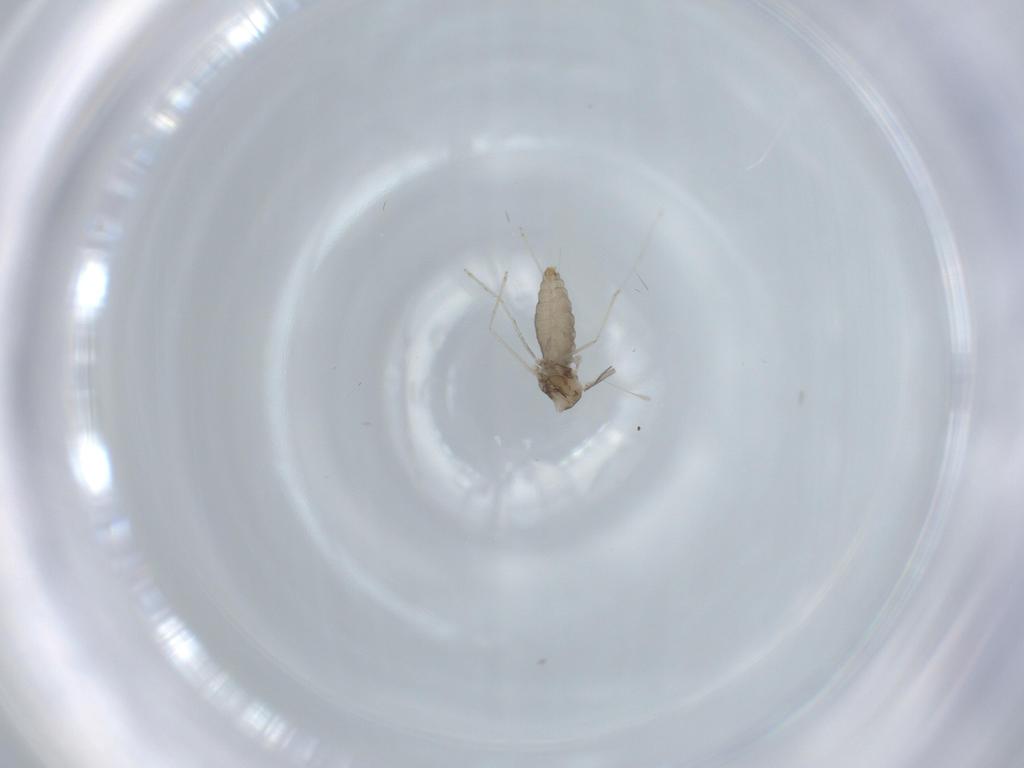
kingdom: Animalia
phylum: Arthropoda
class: Insecta
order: Diptera
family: Cecidomyiidae
